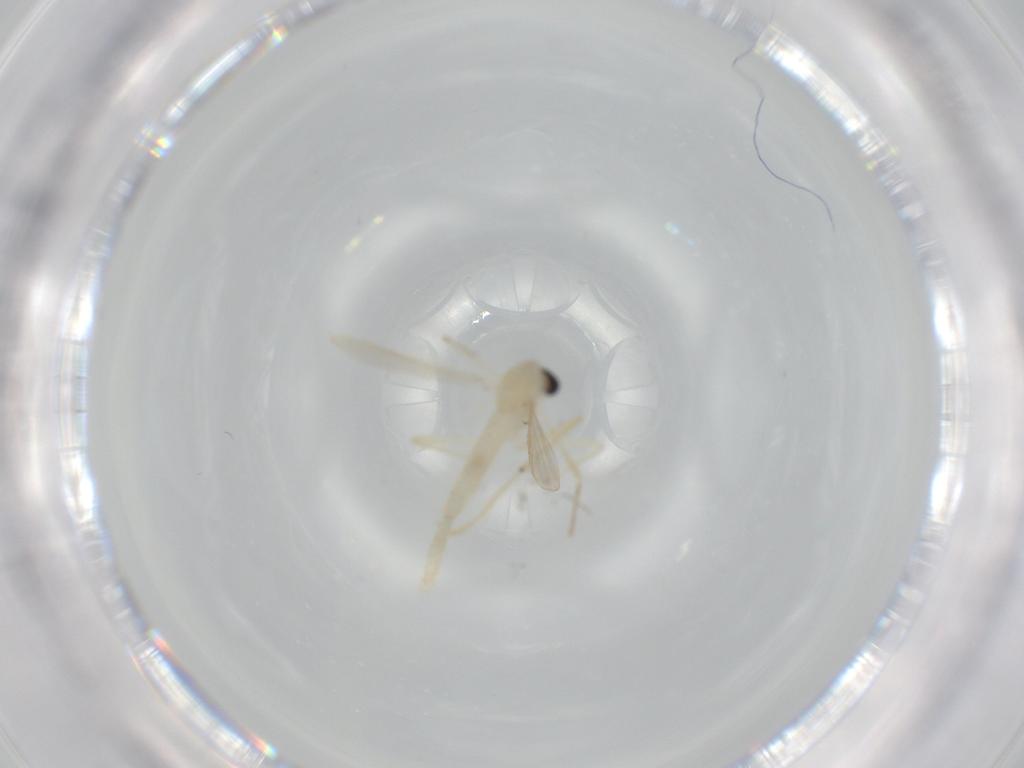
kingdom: Animalia
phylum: Arthropoda
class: Insecta
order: Diptera
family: Chironomidae
